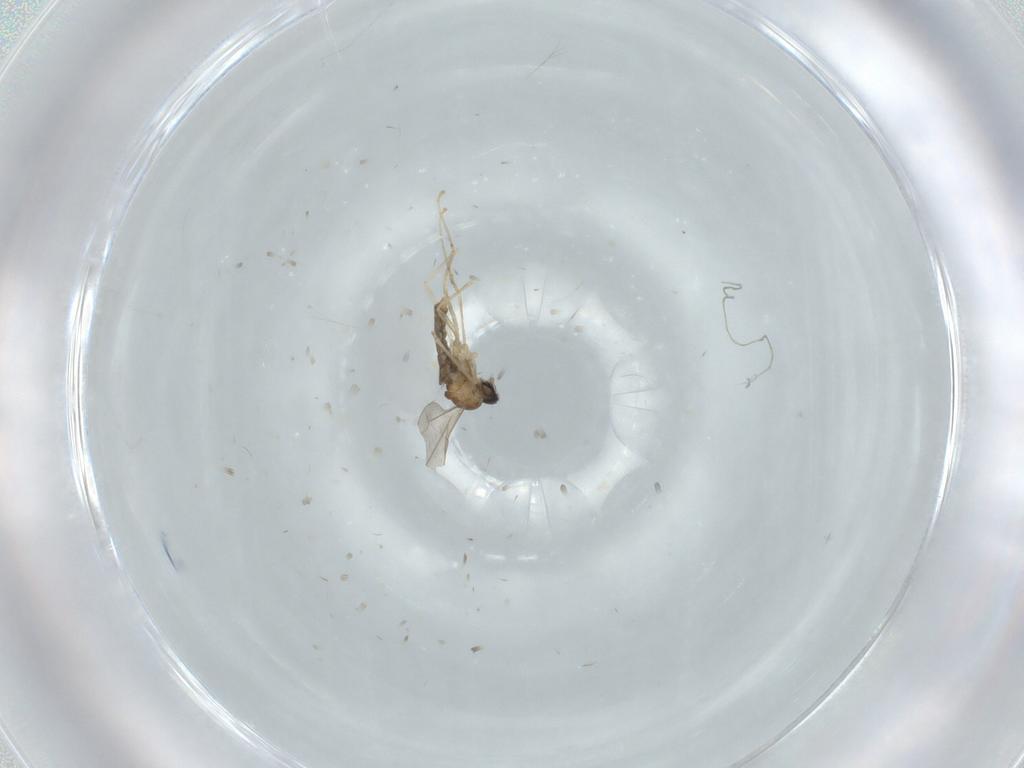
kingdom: Animalia
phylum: Arthropoda
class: Insecta
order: Diptera
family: Cecidomyiidae
